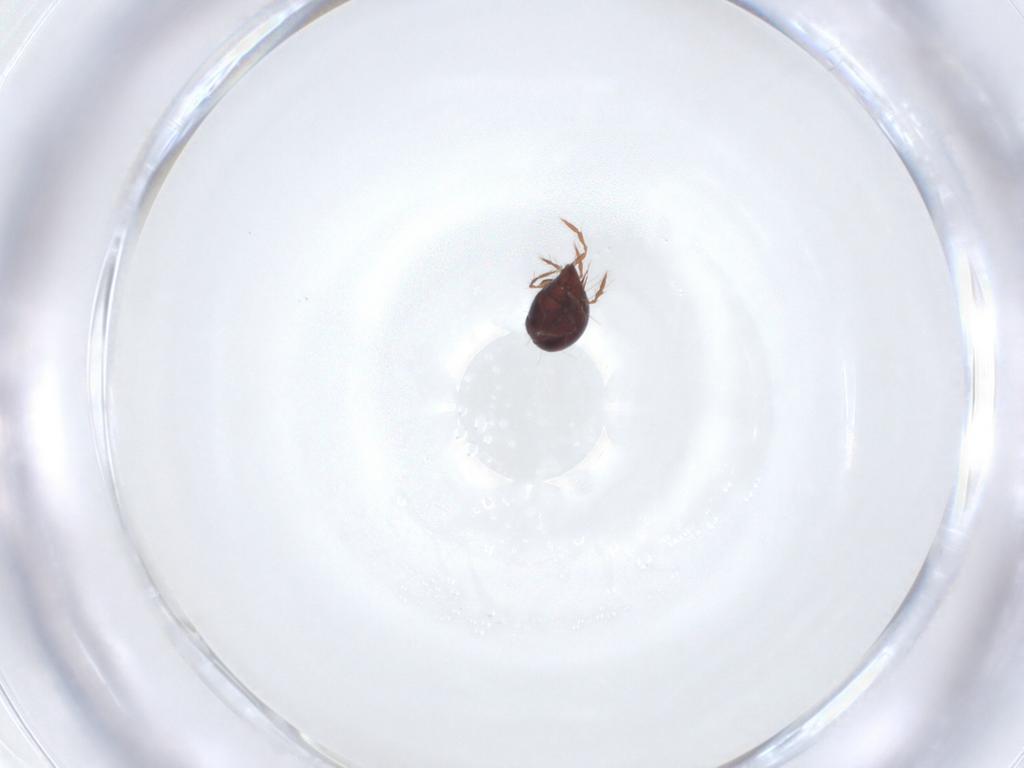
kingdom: Animalia
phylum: Arthropoda
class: Arachnida
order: Sarcoptiformes
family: Ceratoppiidae
